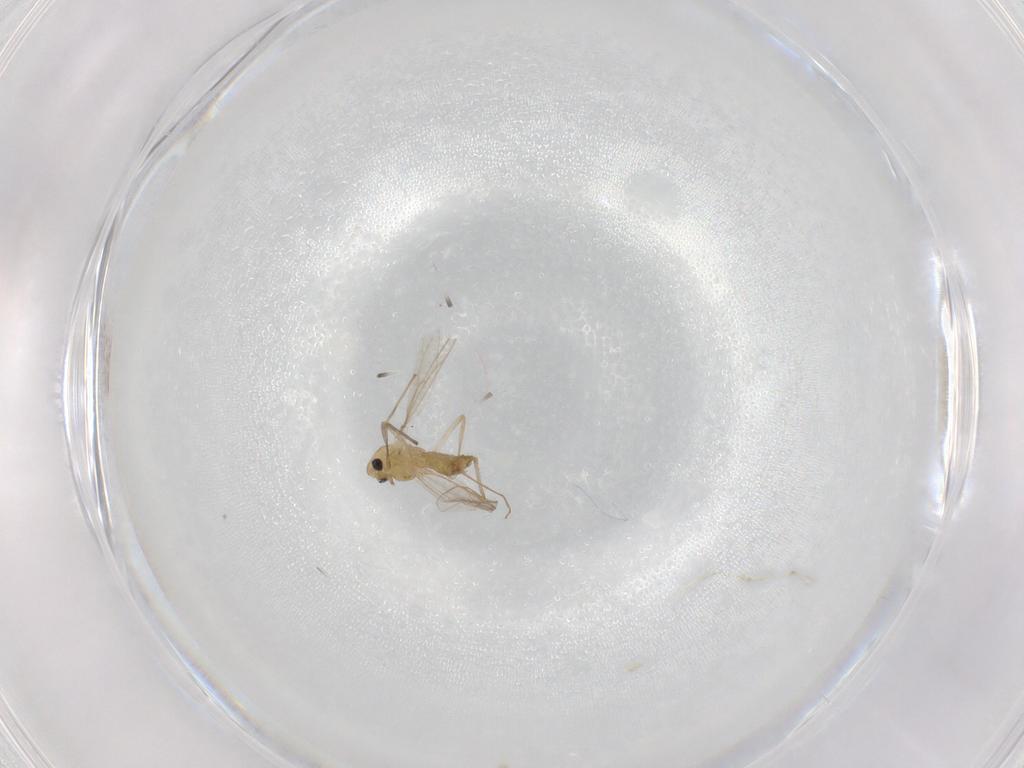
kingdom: Animalia
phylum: Arthropoda
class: Insecta
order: Diptera
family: Chironomidae
